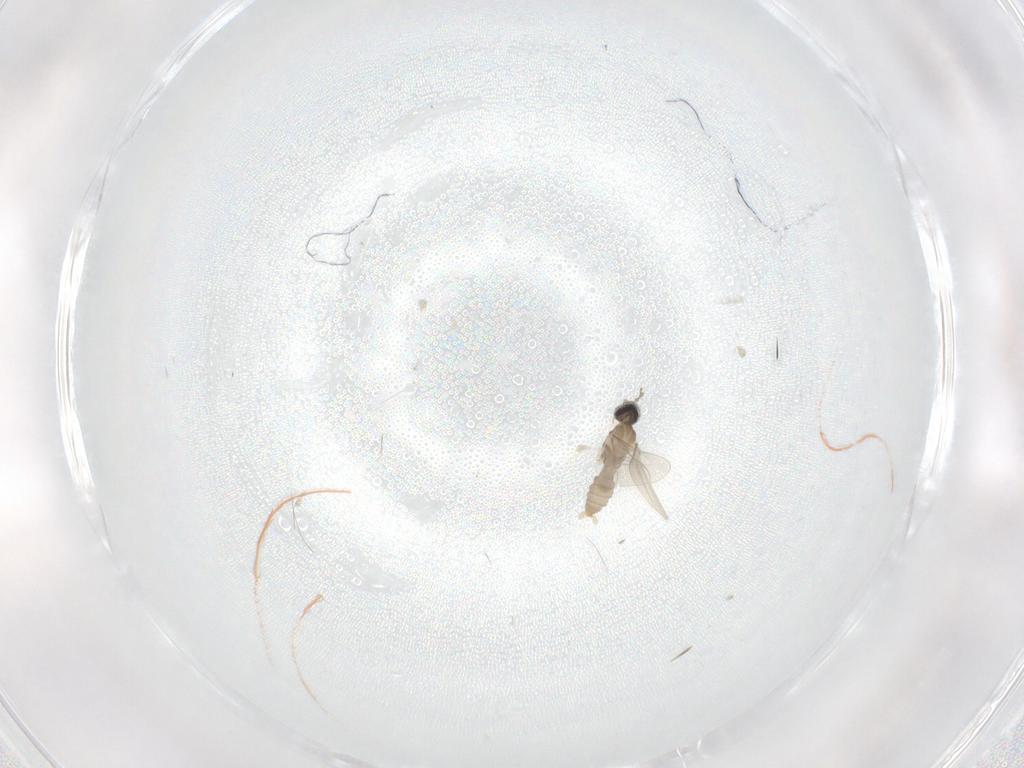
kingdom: Animalia
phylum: Arthropoda
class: Insecta
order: Diptera
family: Cecidomyiidae
